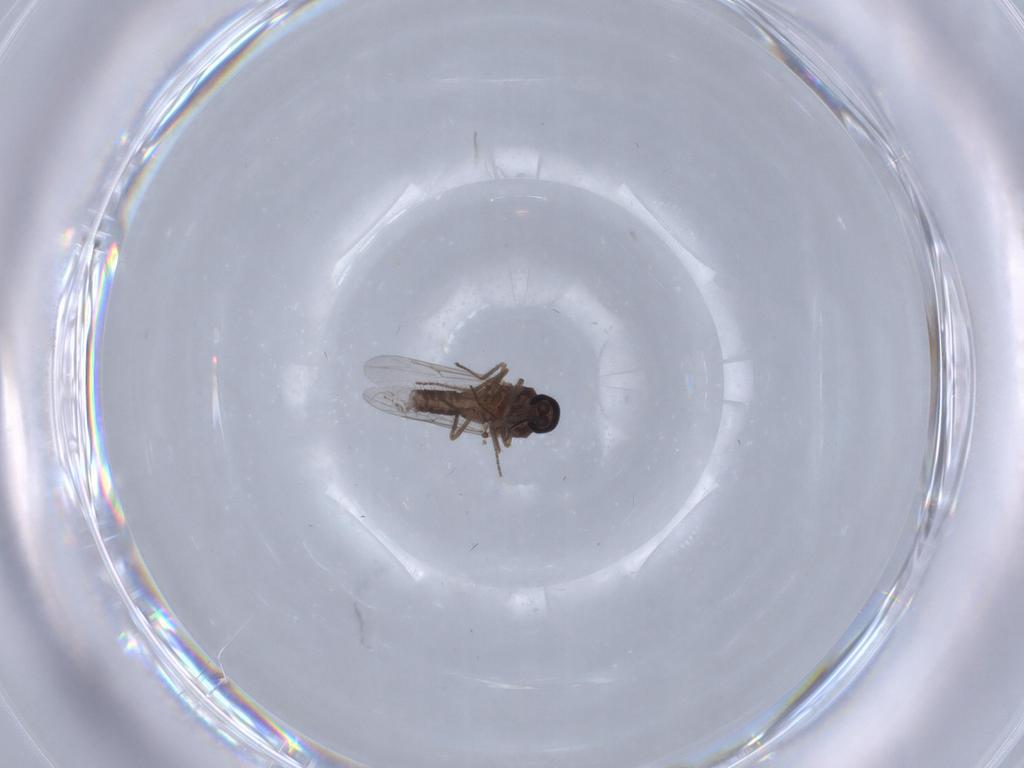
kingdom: Animalia
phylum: Arthropoda
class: Insecta
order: Diptera
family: Ceratopogonidae
